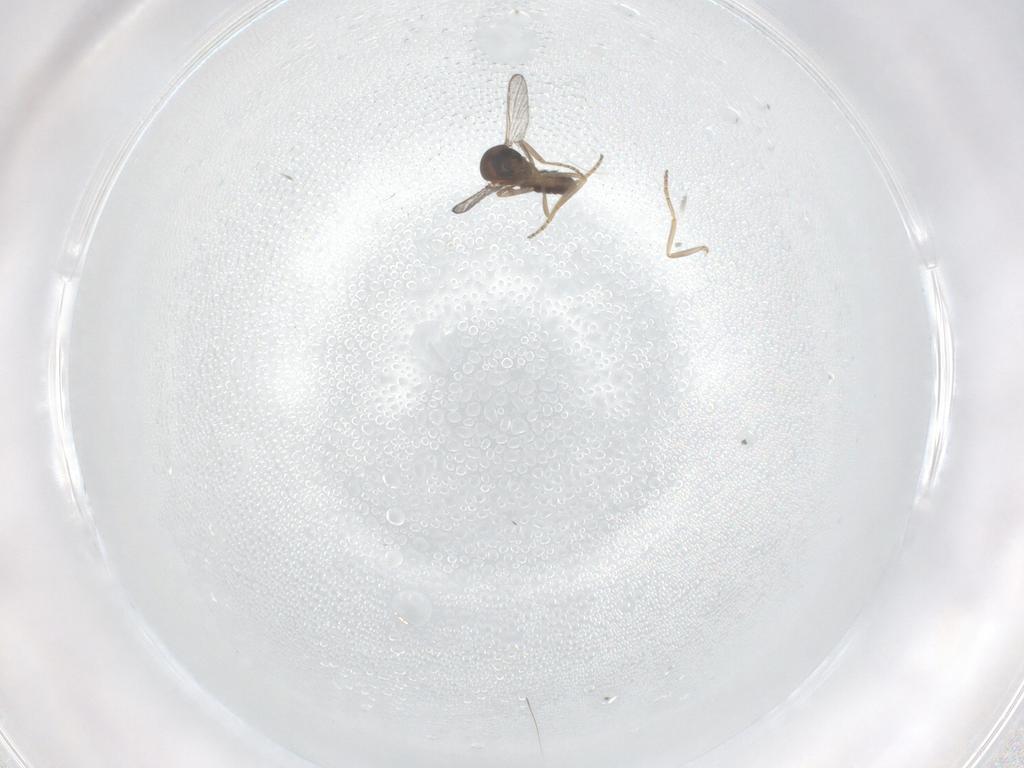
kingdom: Animalia
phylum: Arthropoda
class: Insecta
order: Diptera
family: Ceratopogonidae
